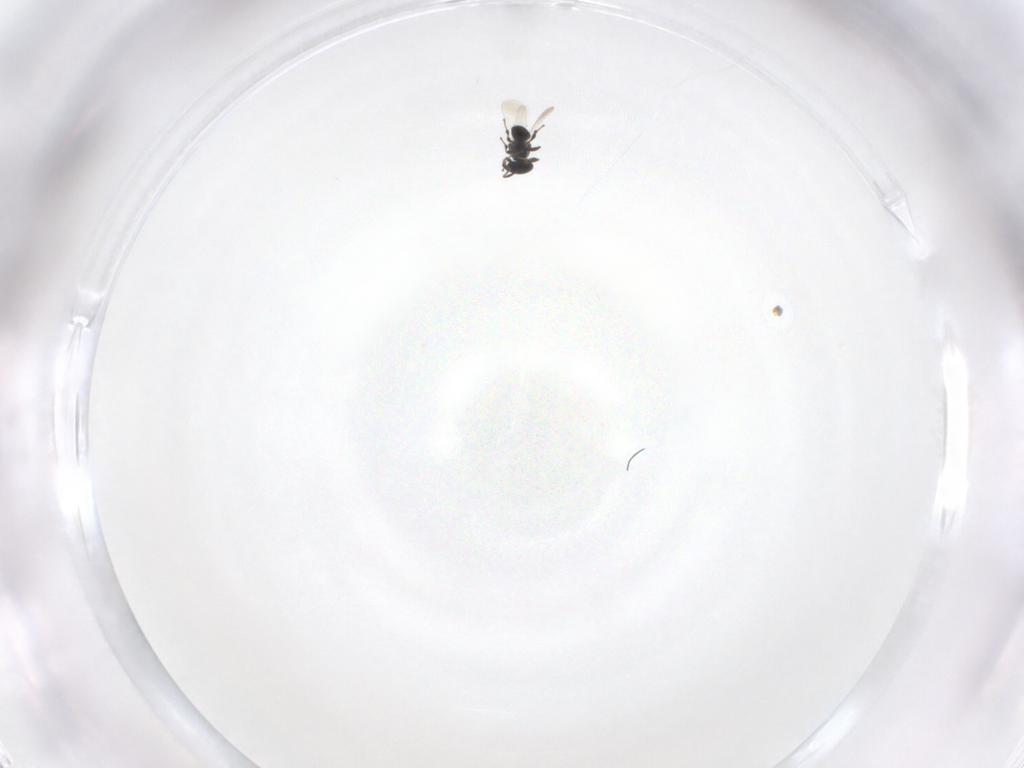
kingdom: Animalia
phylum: Arthropoda
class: Insecta
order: Hymenoptera
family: Platygastridae
